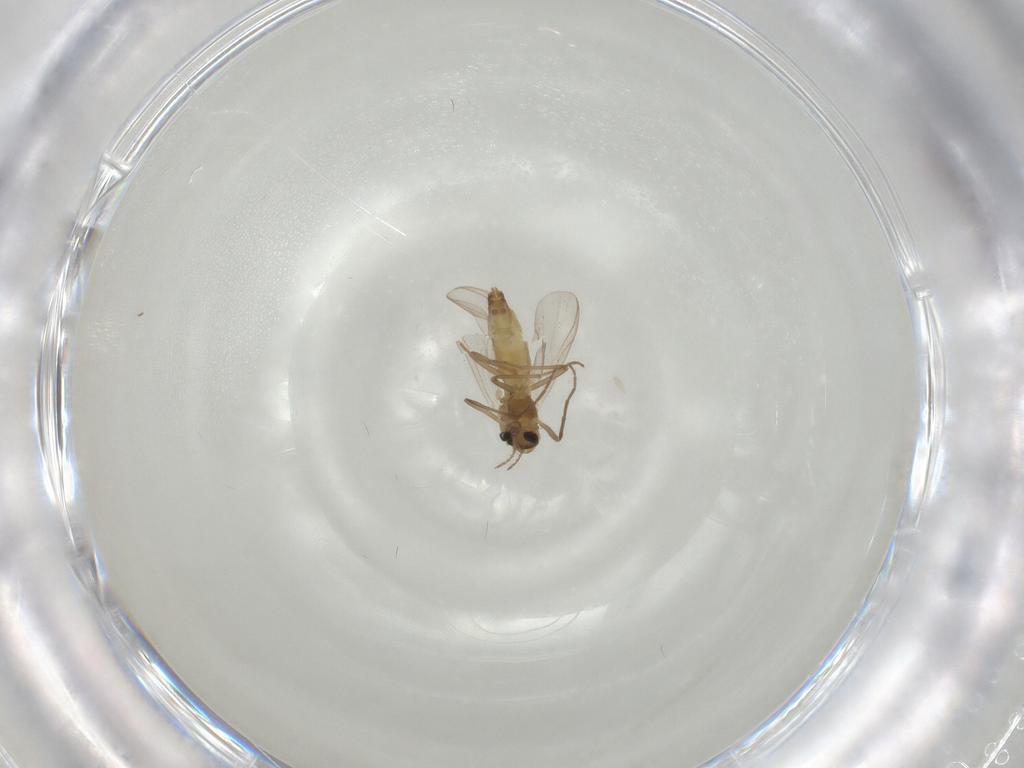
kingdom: Animalia
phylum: Arthropoda
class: Insecta
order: Diptera
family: Chironomidae
